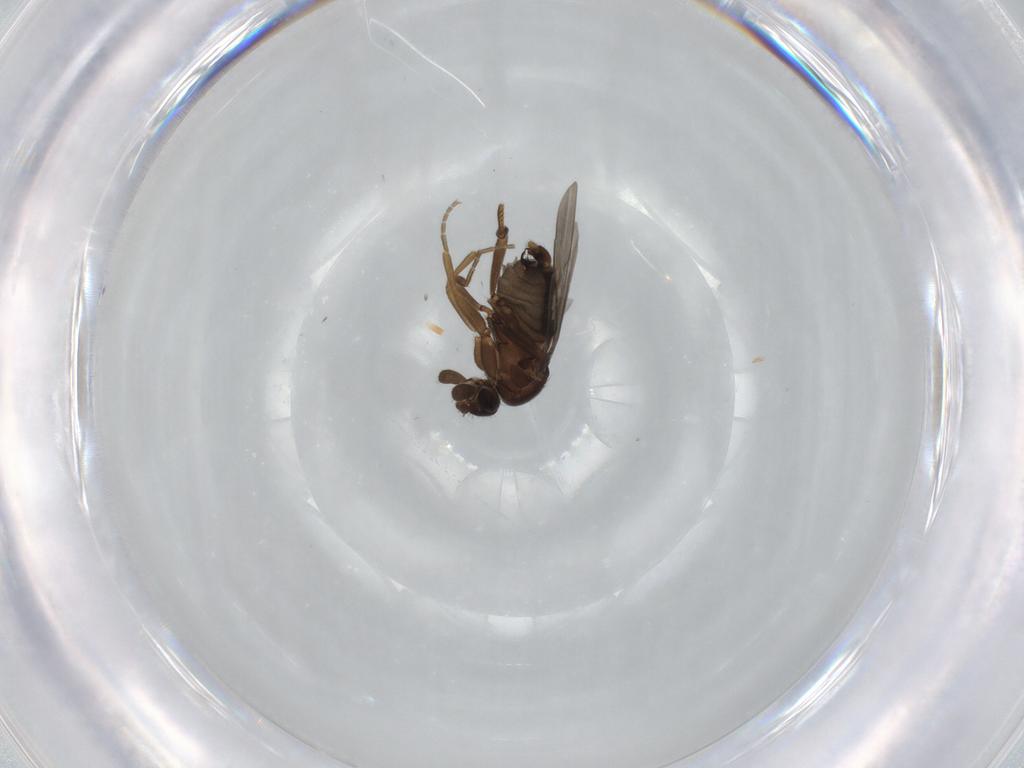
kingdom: Animalia
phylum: Arthropoda
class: Insecta
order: Diptera
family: Phoridae
